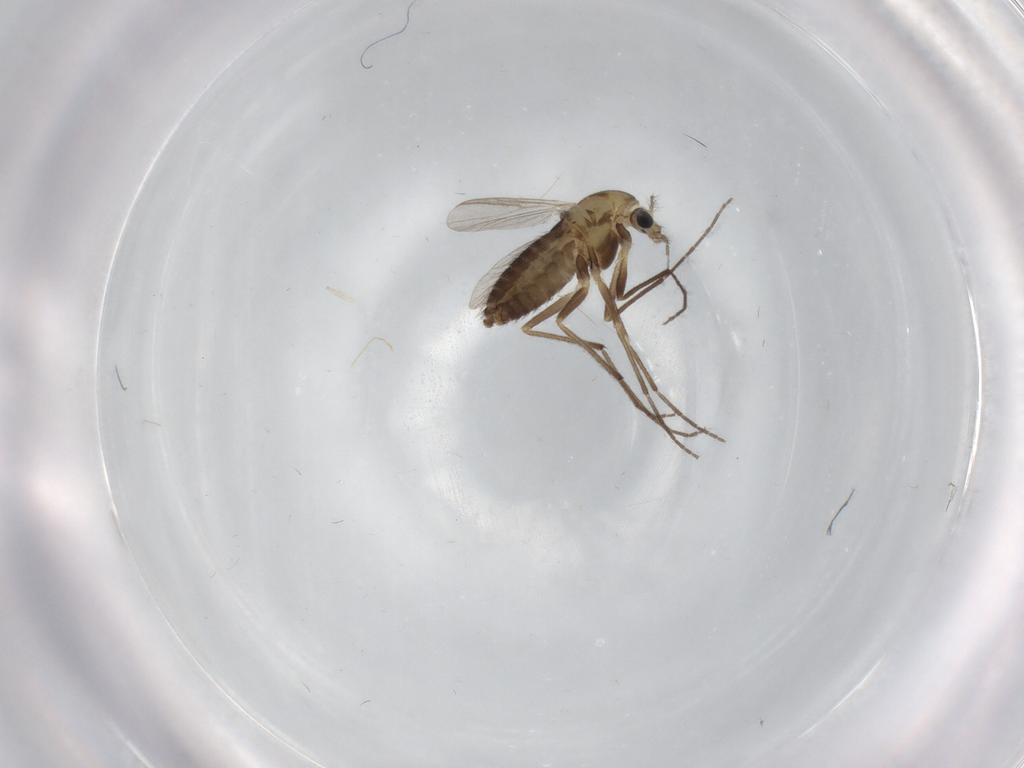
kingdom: Animalia
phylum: Arthropoda
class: Insecta
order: Diptera
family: Chironomidae
